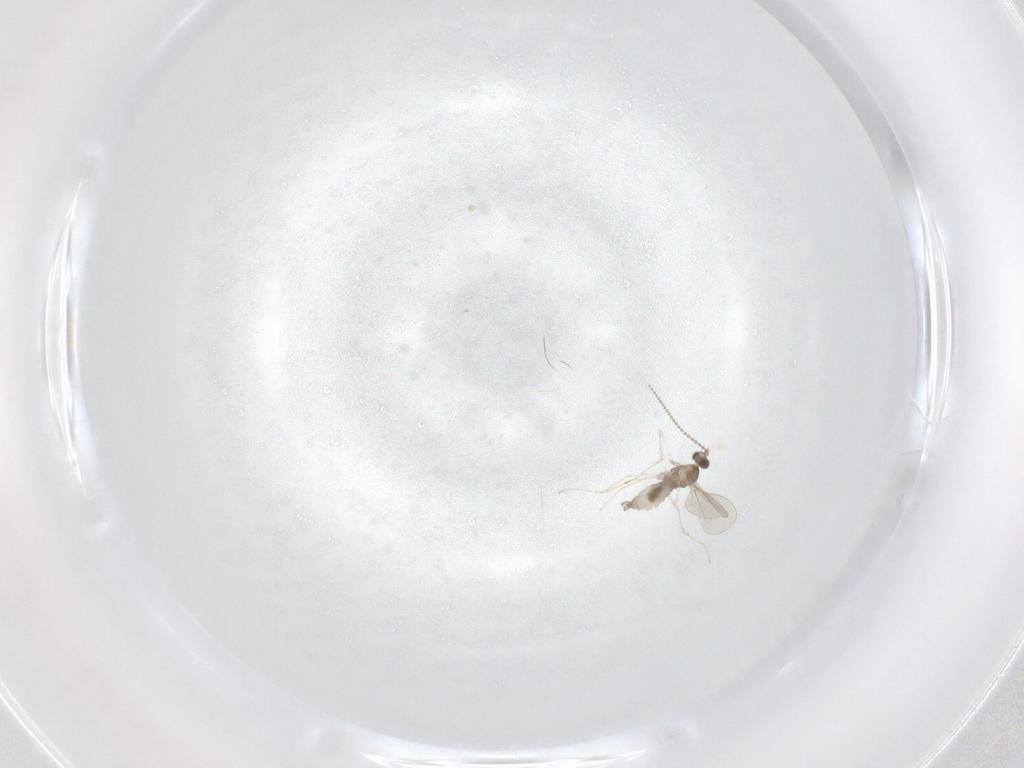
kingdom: Animalia
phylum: Arthropoda
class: Insecta
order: Diptera
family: Cecidomyiidae
